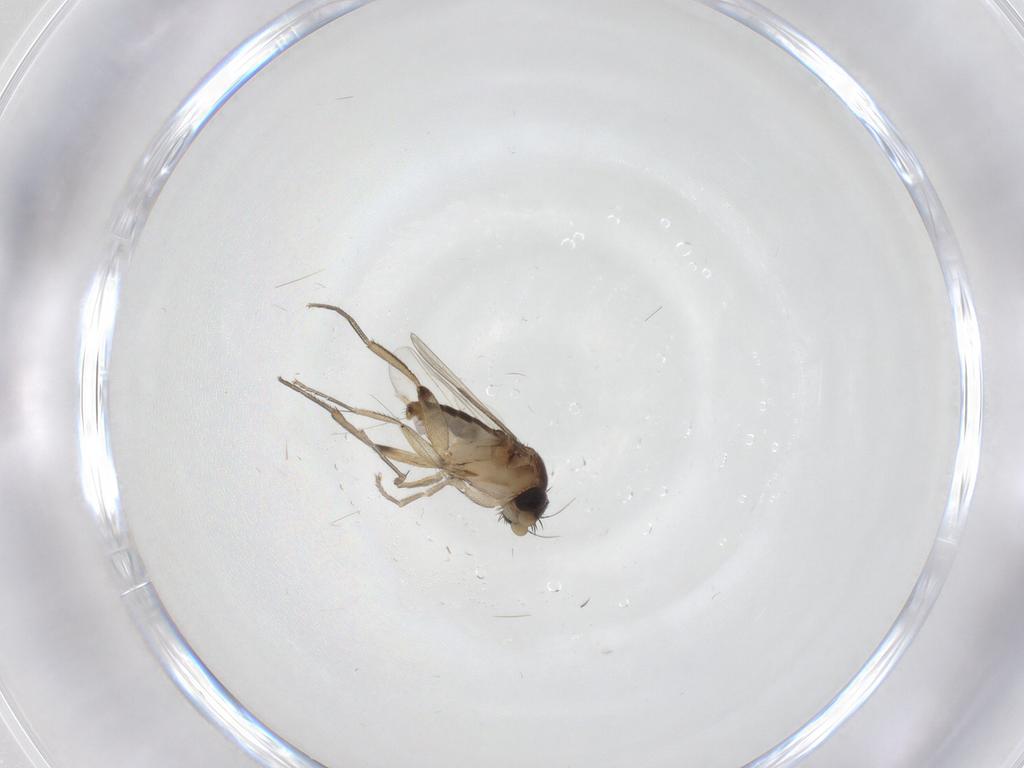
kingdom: Animalia
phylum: Arthropoda
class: Insecta
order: Diptera
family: Phoridae
